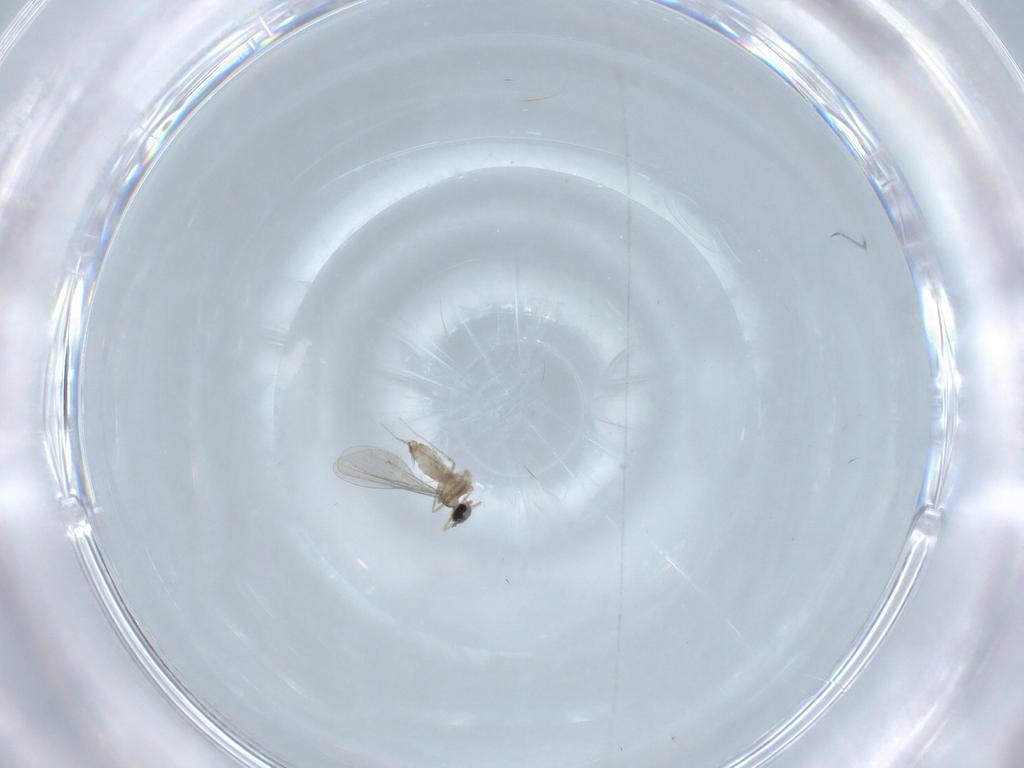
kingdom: Animalia
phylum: Arthropoda
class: Insecta
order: Diptera
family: Cecidomyiidae
